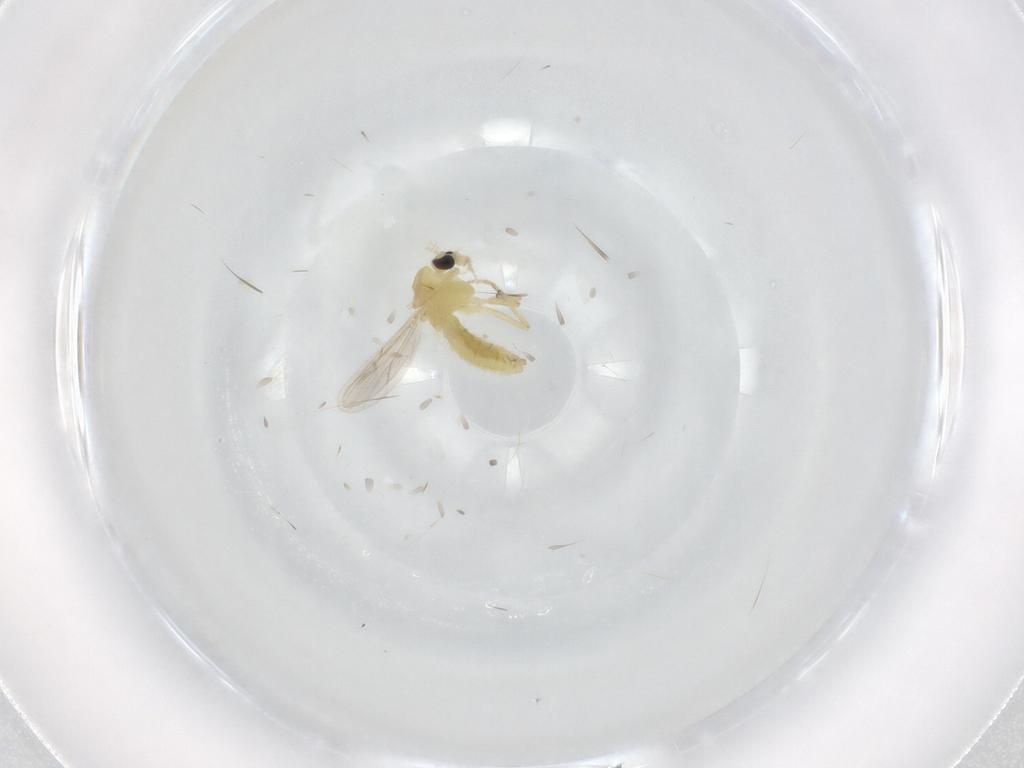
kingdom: Animalia
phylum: Arthropoda
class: Insecta
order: Diptera
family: Chironomidae
